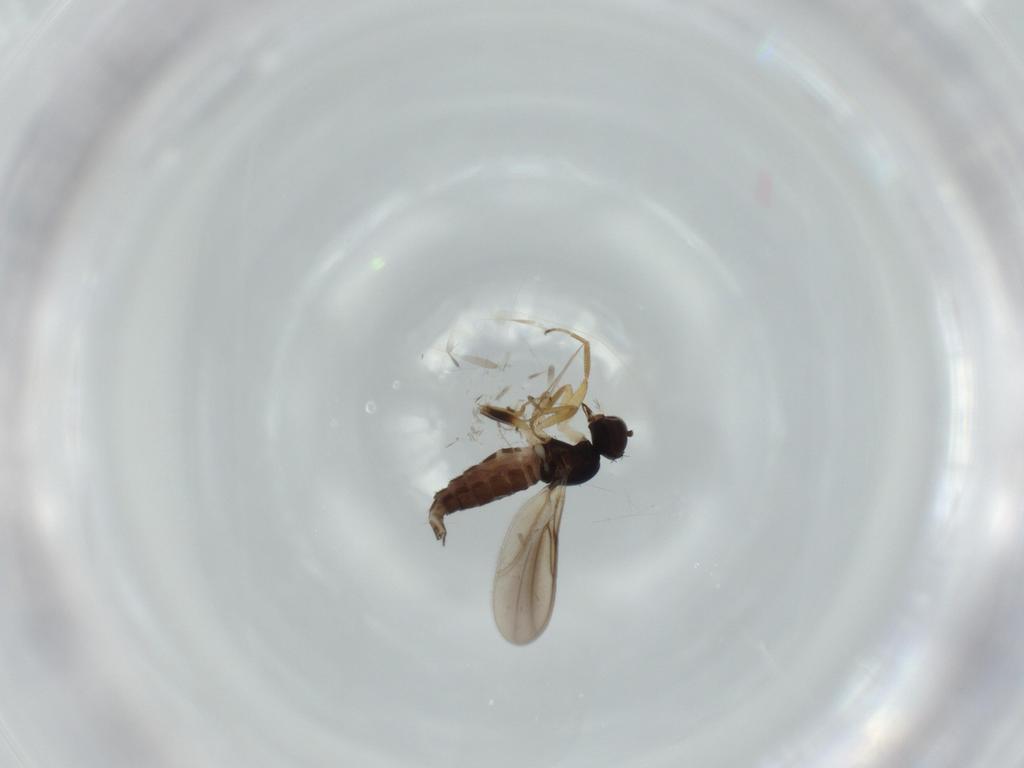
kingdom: Animalia
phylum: Arthropoda
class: Insecta
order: Diptera
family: Hybotidae
